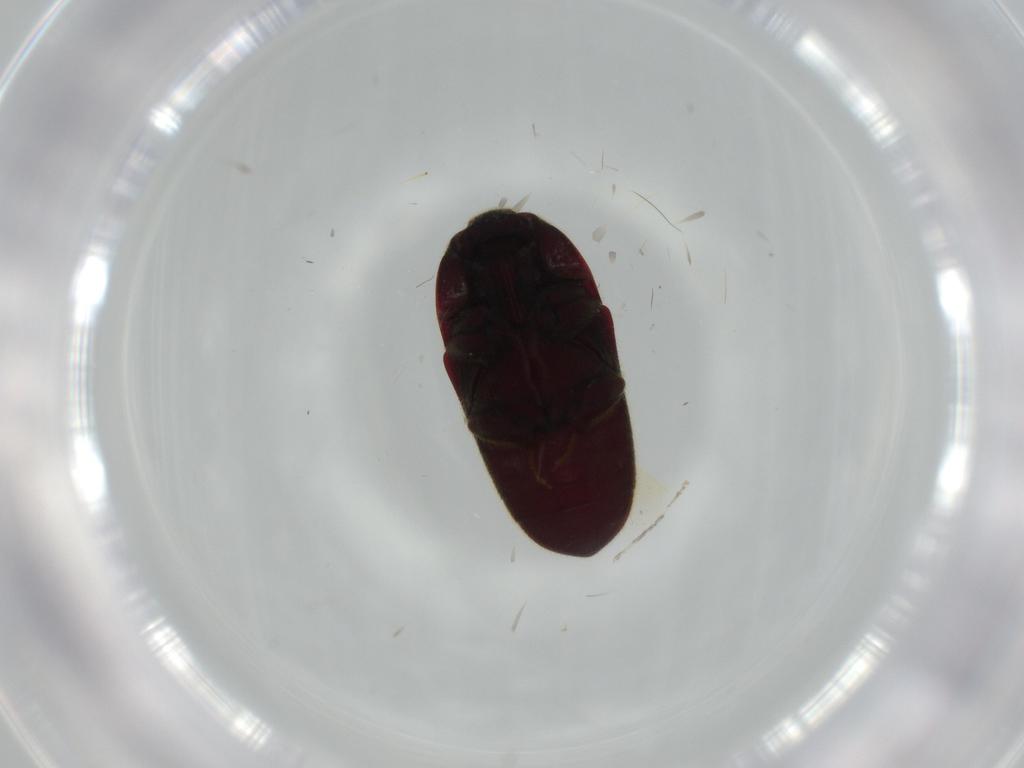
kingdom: Animalia
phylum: Arthropoda
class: Insecta
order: Coleoptera
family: Throscidae
